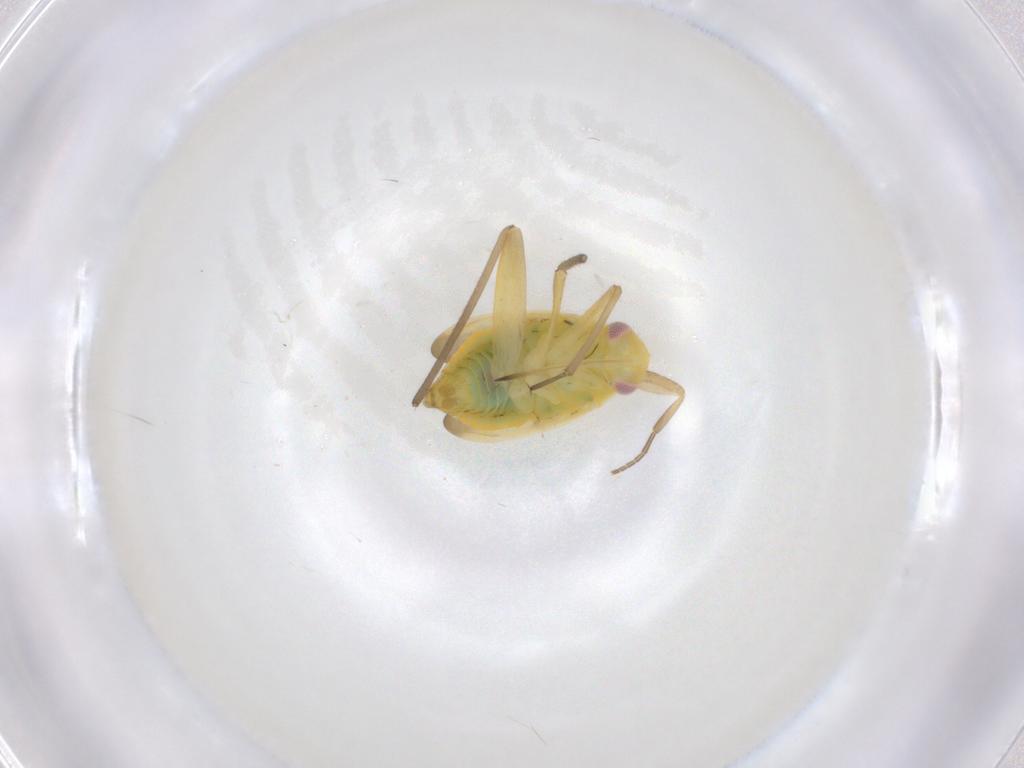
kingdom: Animalia
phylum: Arthropoda
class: Insecta
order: Hemiptera
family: Miridae
